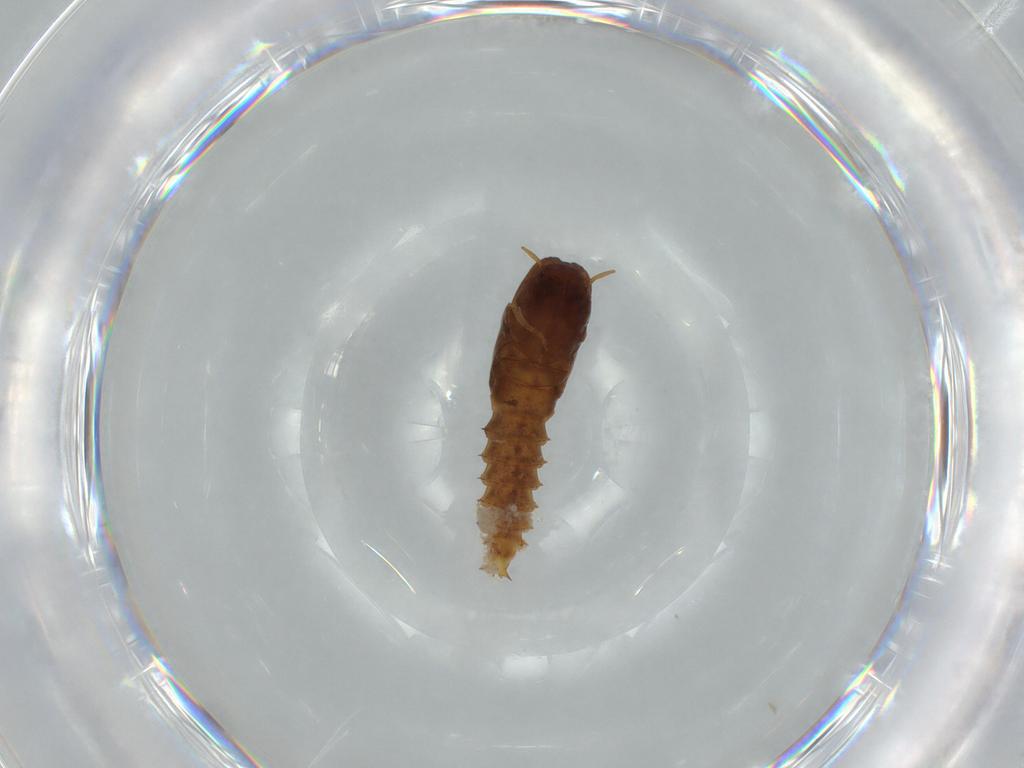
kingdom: Animalia
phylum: Arthropoda
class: Insecta
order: Diptera
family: Ceratopogonidae
